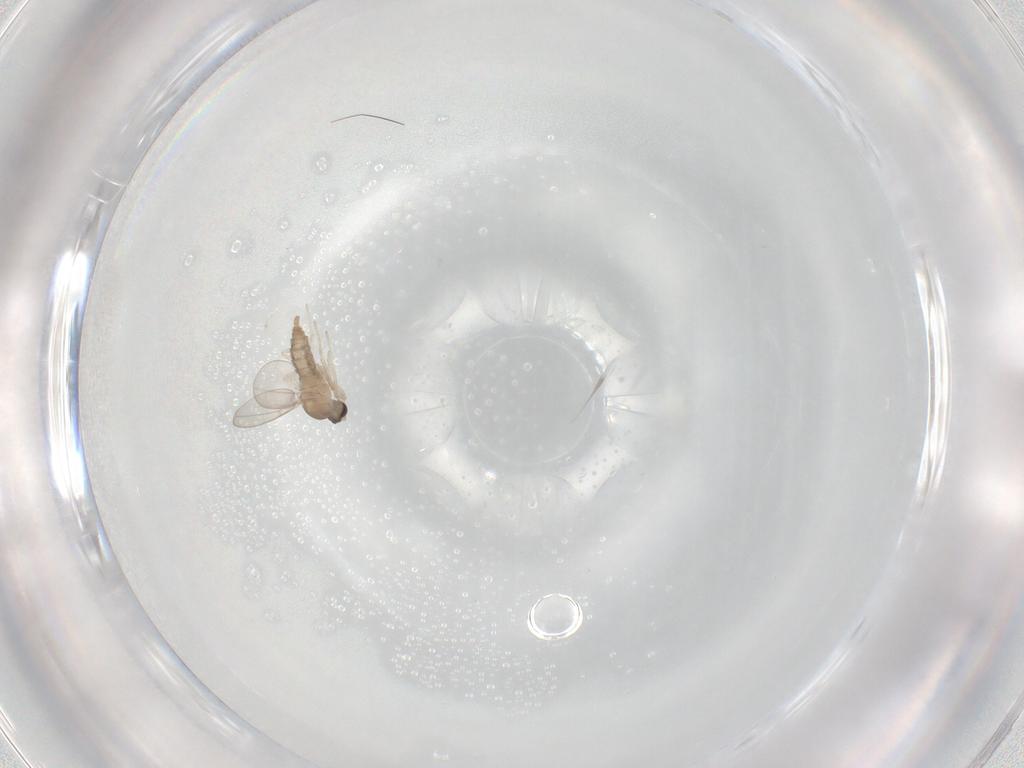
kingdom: Animalia
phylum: Arthropoda
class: Insecta
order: Diptera
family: Cecidomyiidae
